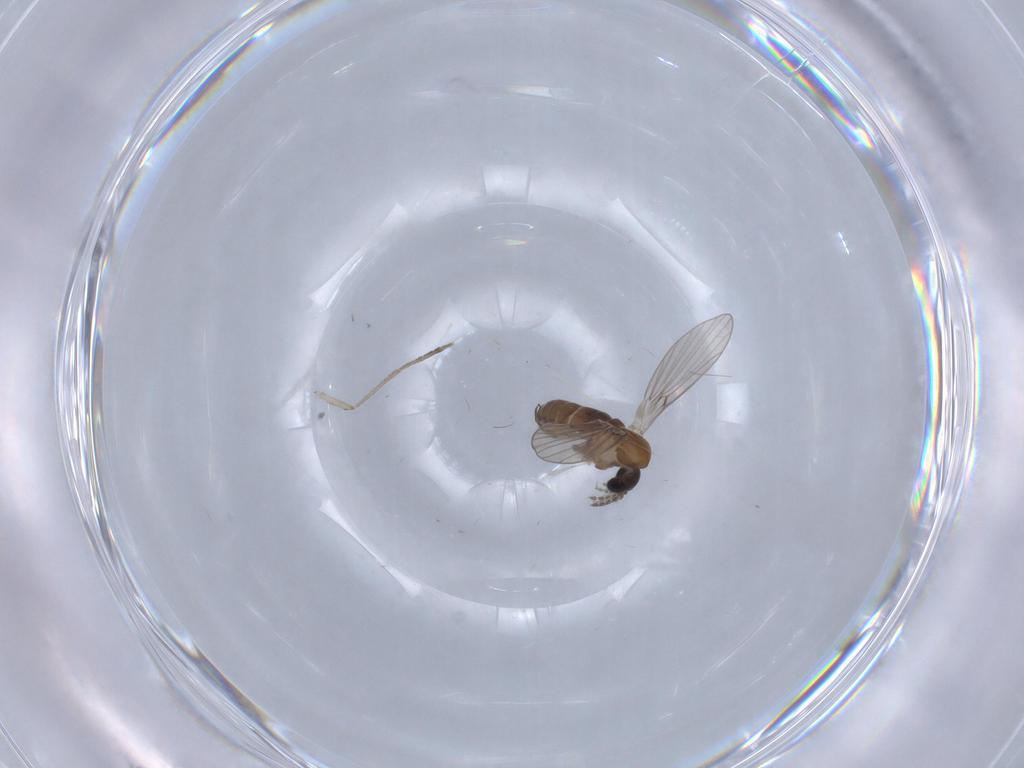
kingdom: Animalia
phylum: Arthropoda
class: Insecta
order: Diptera
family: Psychodidae
